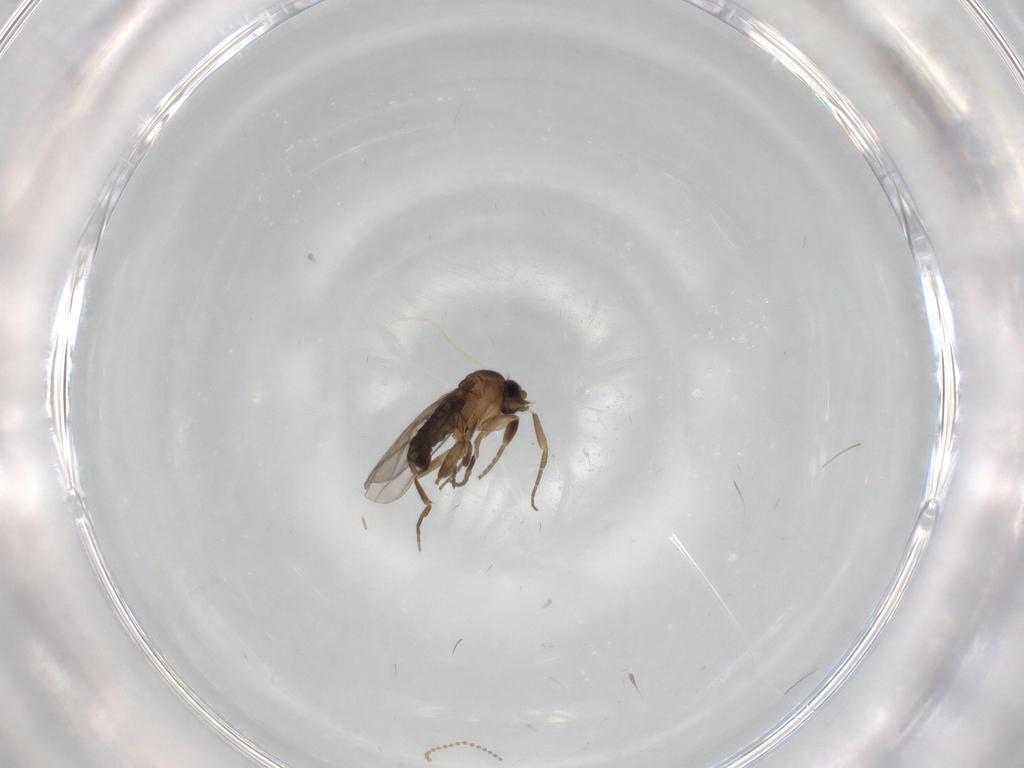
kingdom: Animalia
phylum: Arthropoda
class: Insecta
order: Diptera
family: Phoridae
